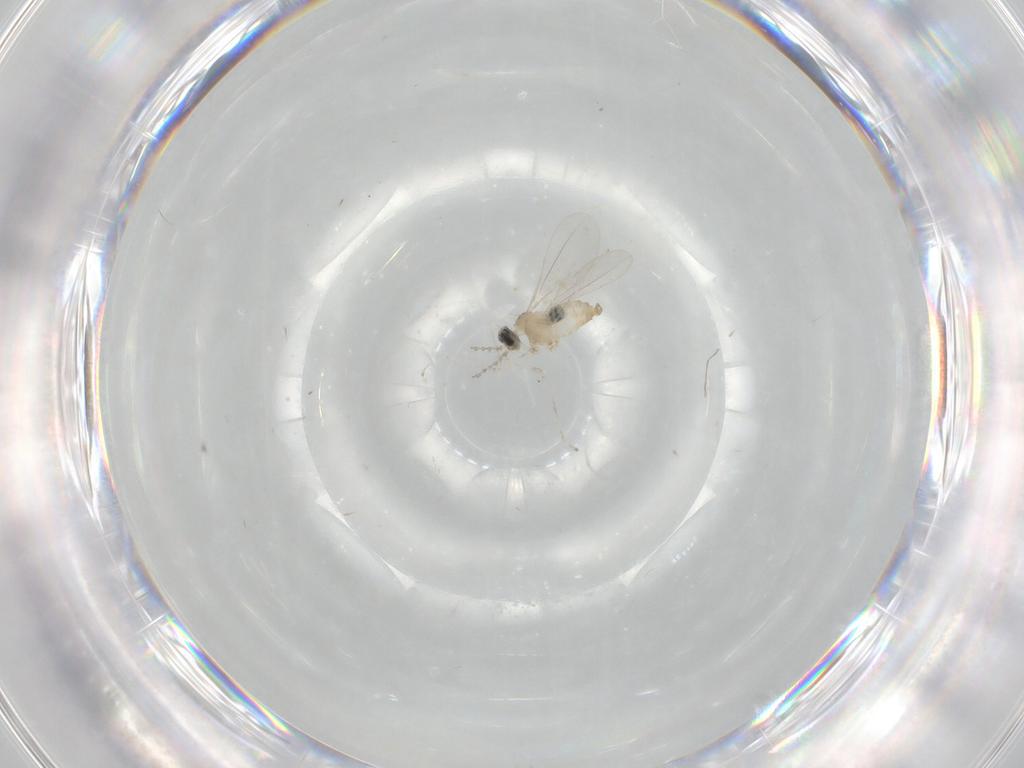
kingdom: Animalia
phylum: Arthropoda
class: Insecta
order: Diptera
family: Cecidomyiidae
